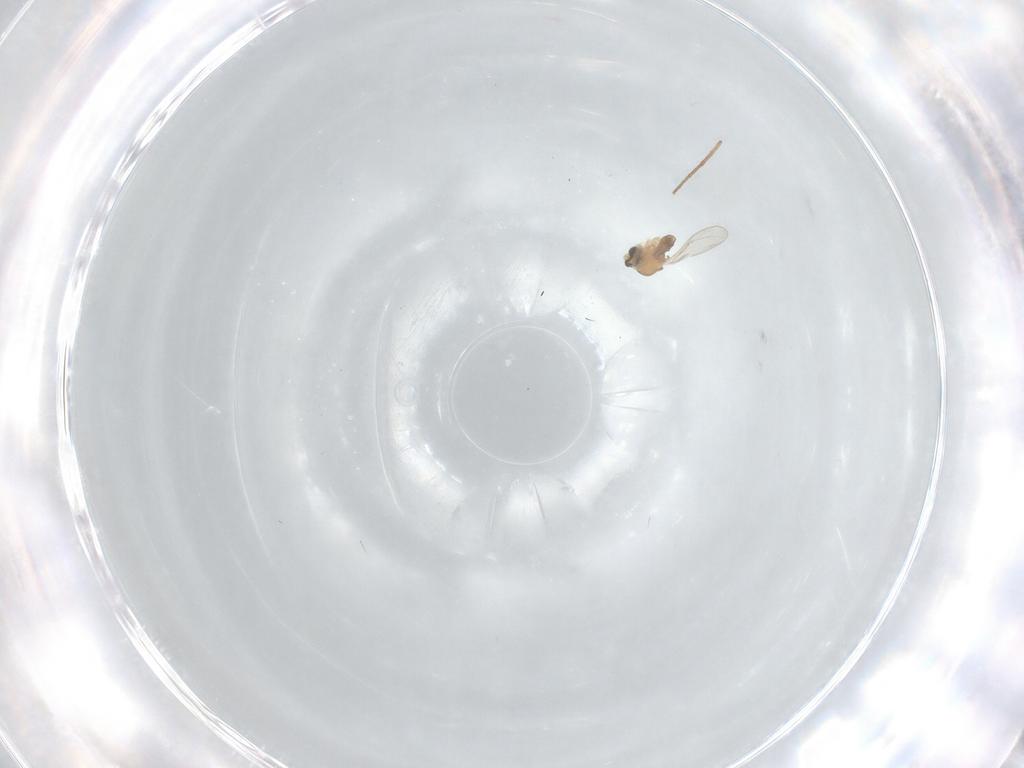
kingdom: Animalia
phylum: Arthropoda
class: Insecta
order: Diptera
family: Cecidomyiidae
